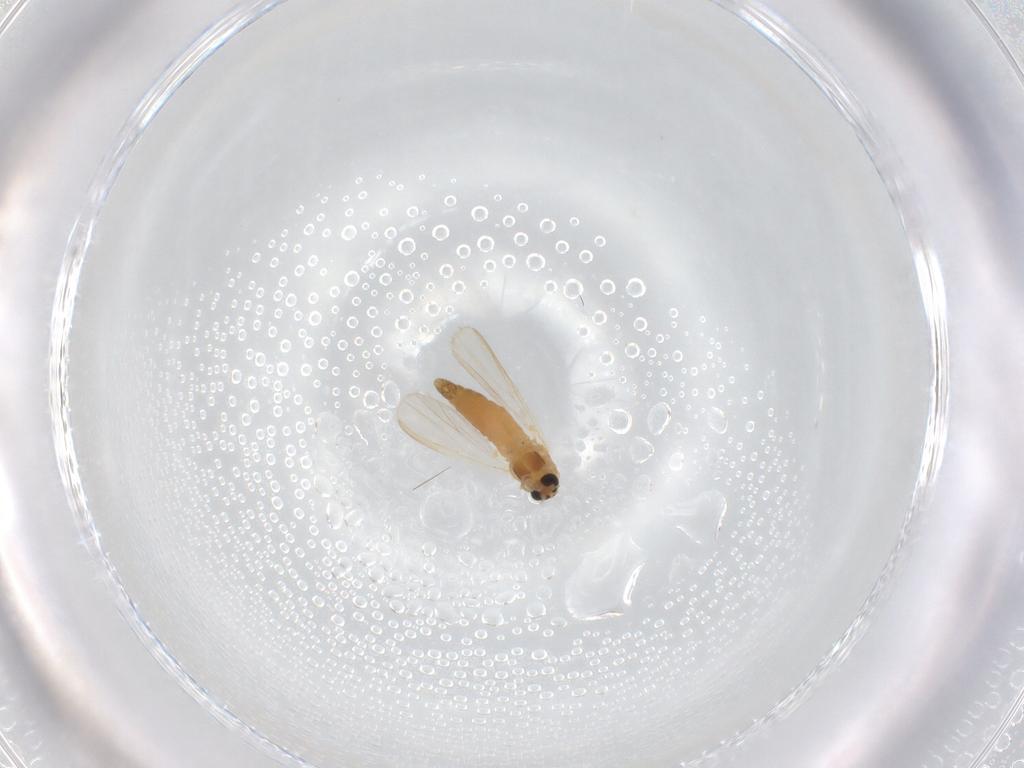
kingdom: Animalia
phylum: Arthropoda
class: Insecta
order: Diptera
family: Chironomidae
